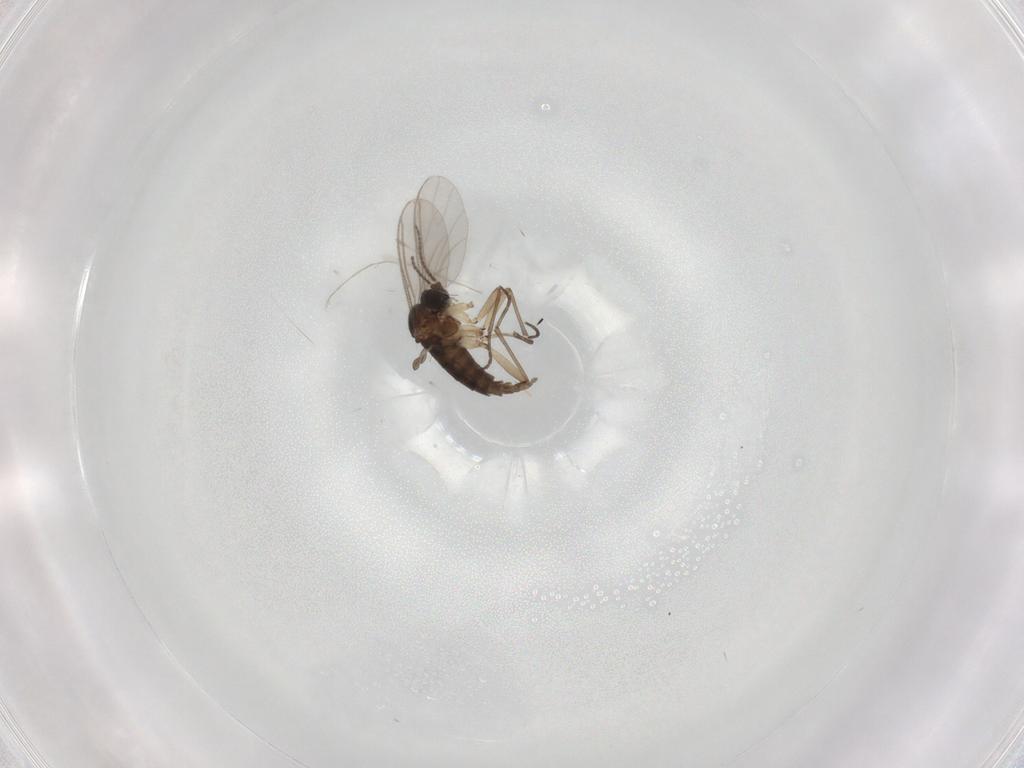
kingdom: Animalia
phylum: Arthropoda
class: Insecta
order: Diptera
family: Sciaridae
